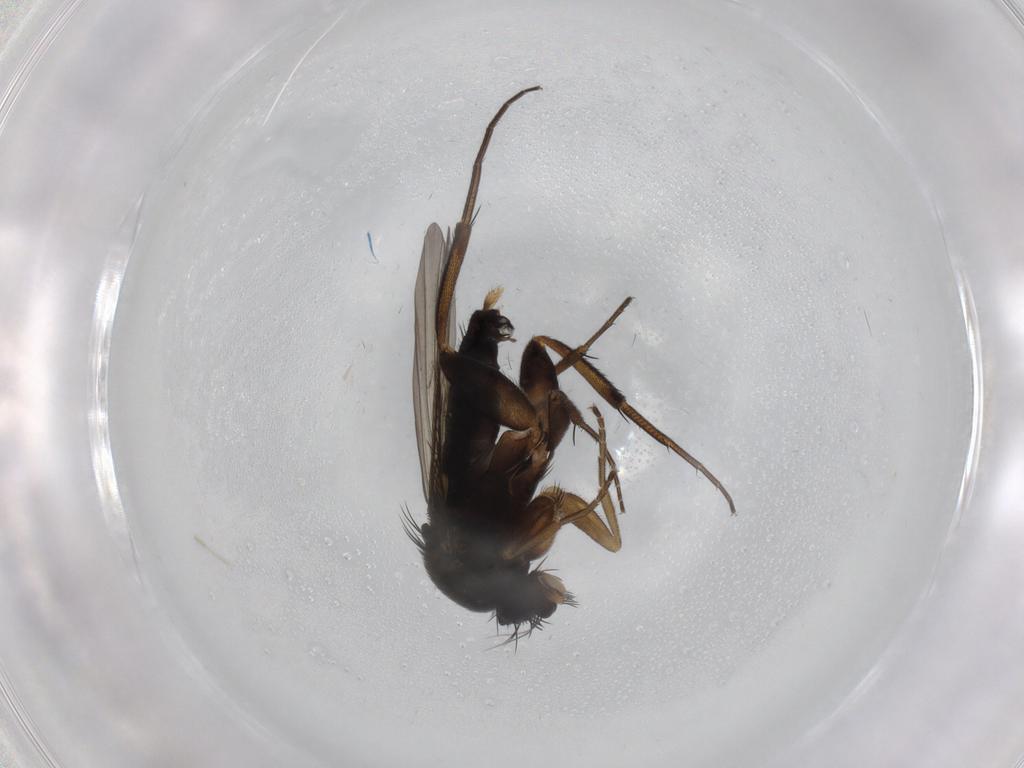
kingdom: Animalia
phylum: Arthropoda
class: Insecta
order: Diptera
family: Phoridae
